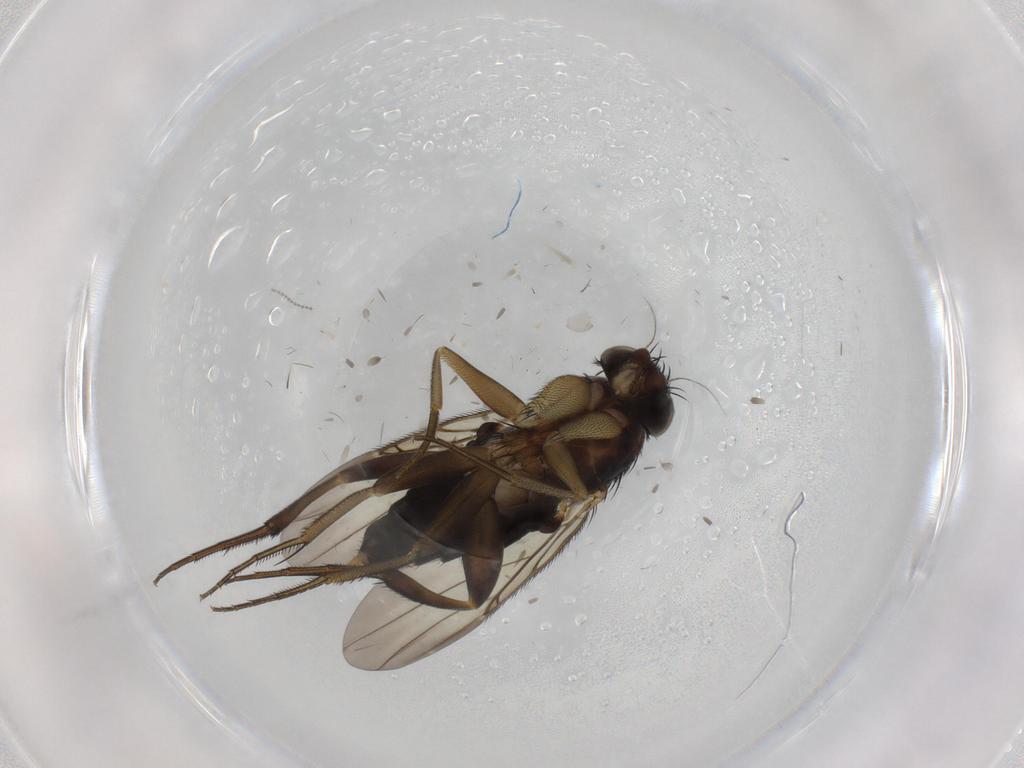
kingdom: Animalia
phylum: Arthropoda
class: Insecta
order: Diptera
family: Phoridae
